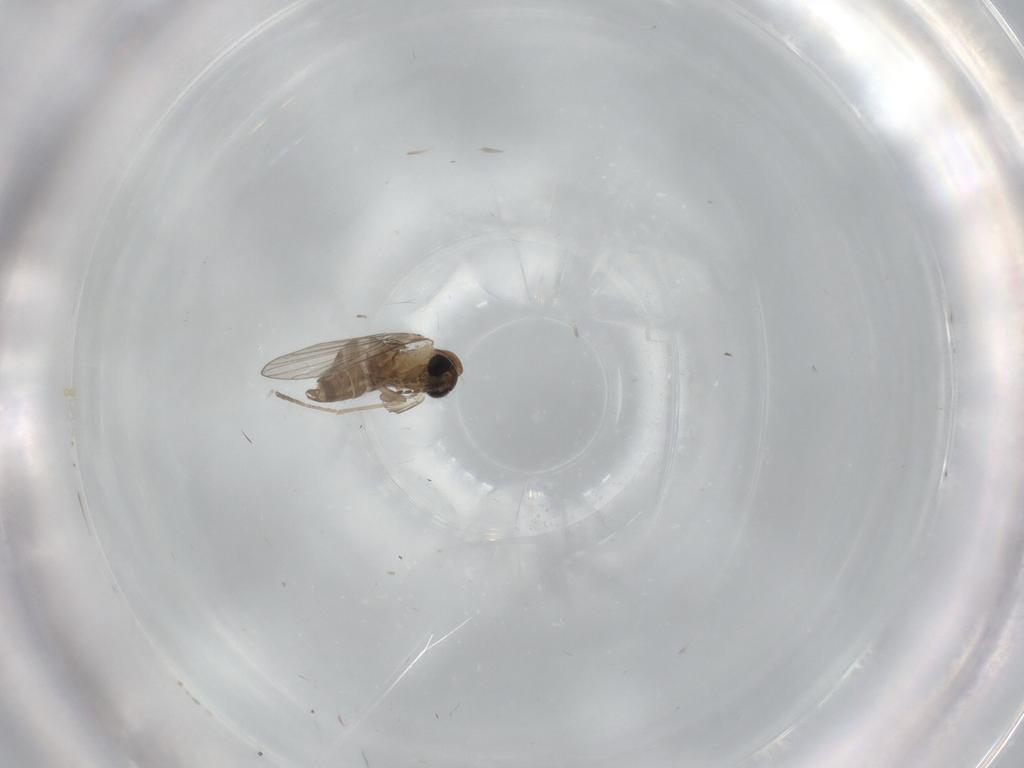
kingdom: Animalia
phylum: Arthropoda
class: Insecta
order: Diptera
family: Chironomidae
